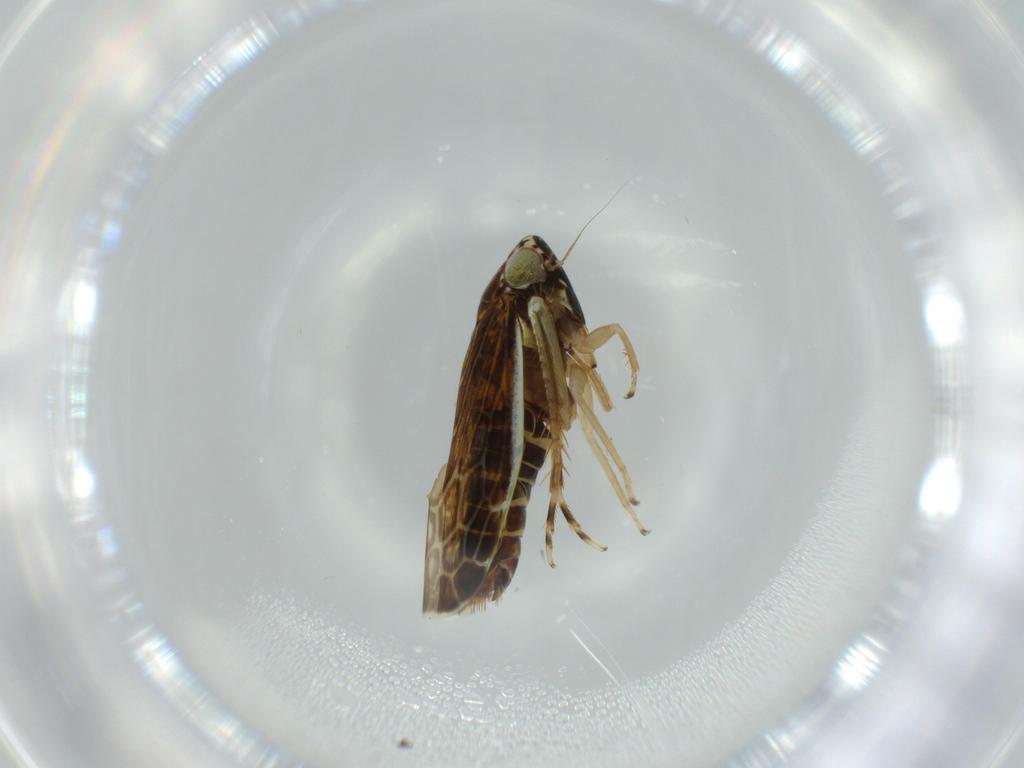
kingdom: Animalia
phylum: Arthropoda
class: Insecta
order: Hemiptera
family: Cicadellidae
